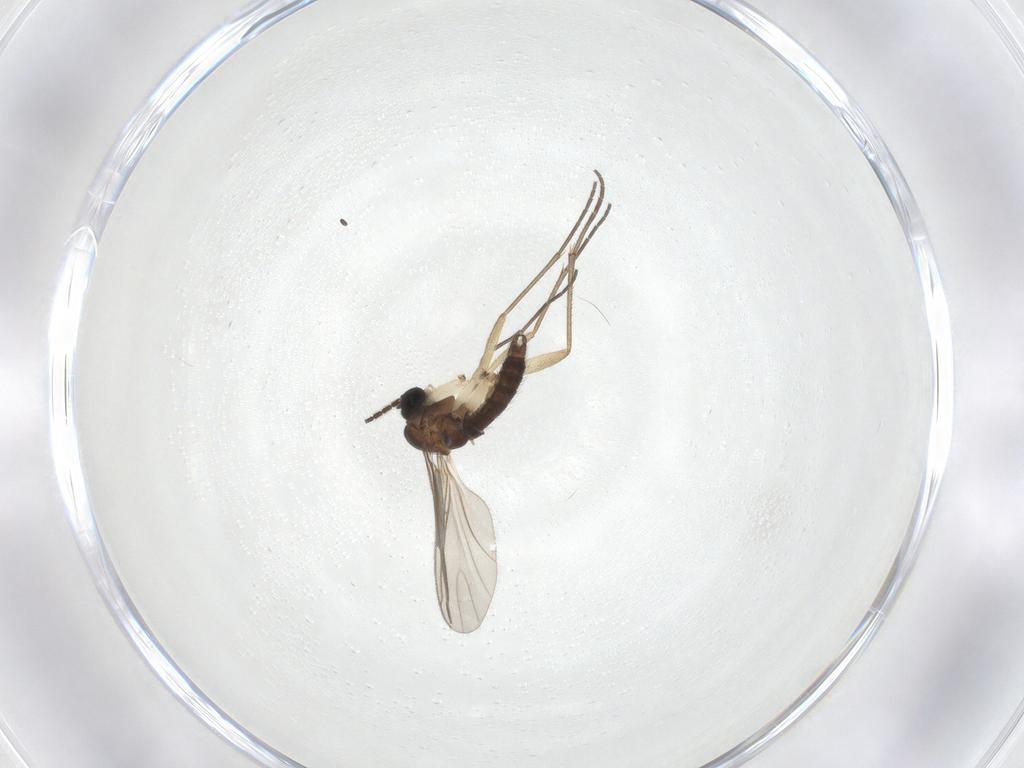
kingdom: Animalia
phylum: Arthropoda
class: Insecta
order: Diptera
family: Sciaridae
